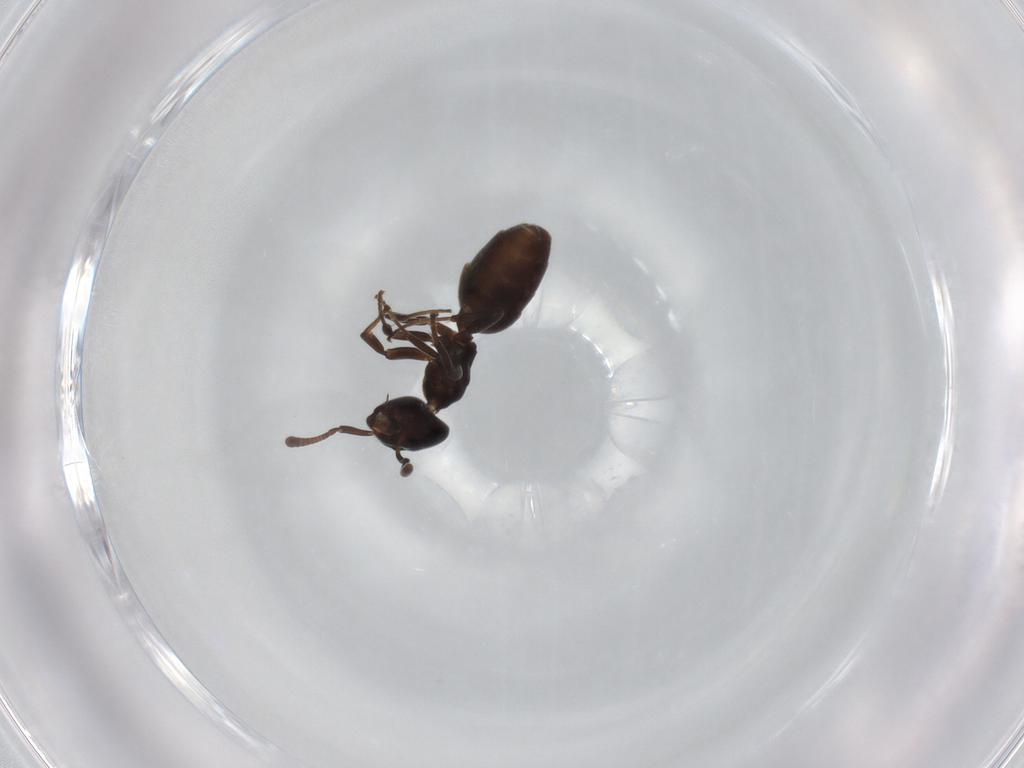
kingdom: Animalia
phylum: Arthropoda
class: Insecta
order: Hymenoptera
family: Formicidae
